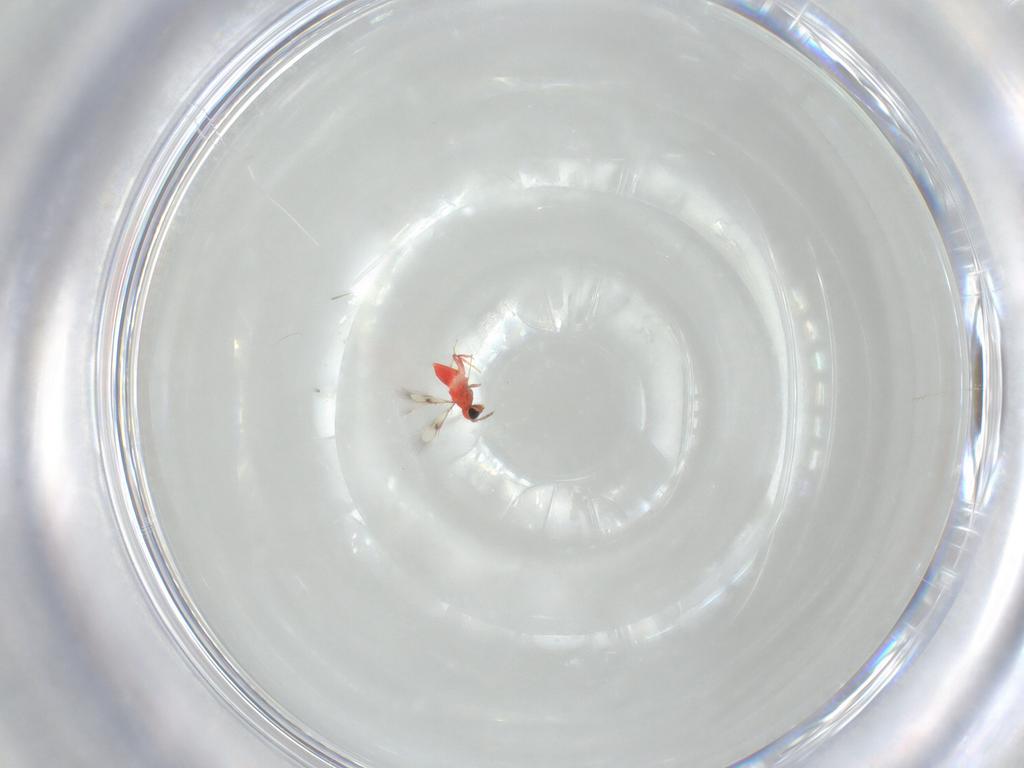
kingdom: Animalia
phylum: Arthropoda
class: Insecta
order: Hymenoptera
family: Trichogrammatidae
